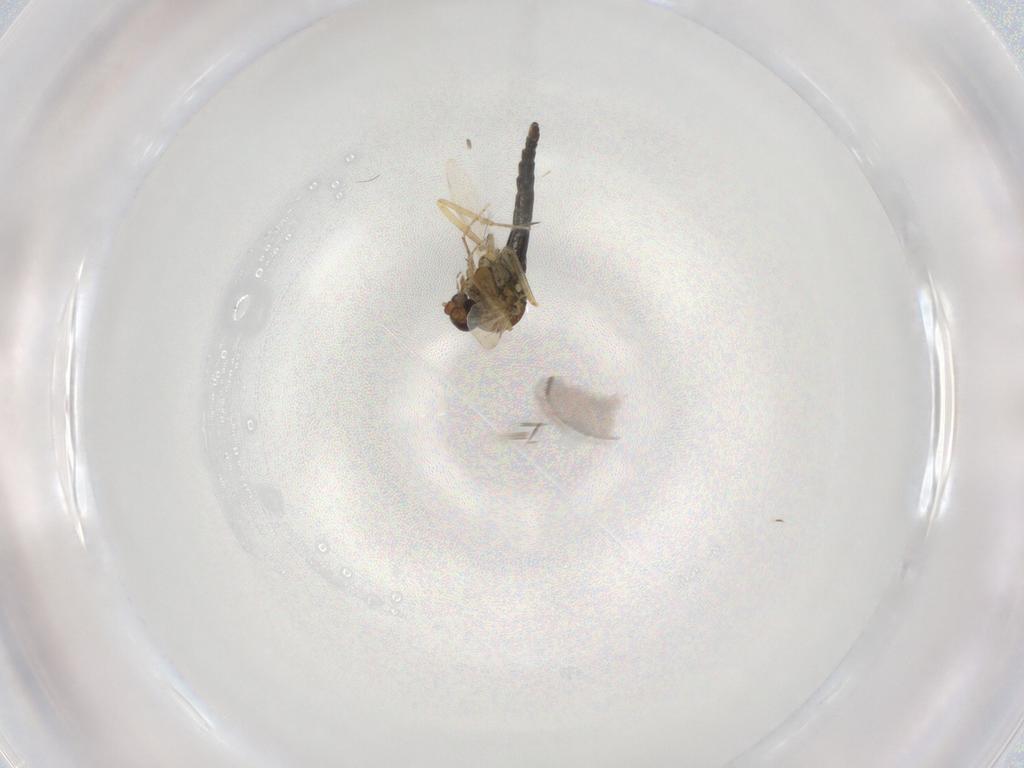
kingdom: Animalia
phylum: Arthropoda
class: Insecta
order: Diptera
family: Ceratopogonidae
